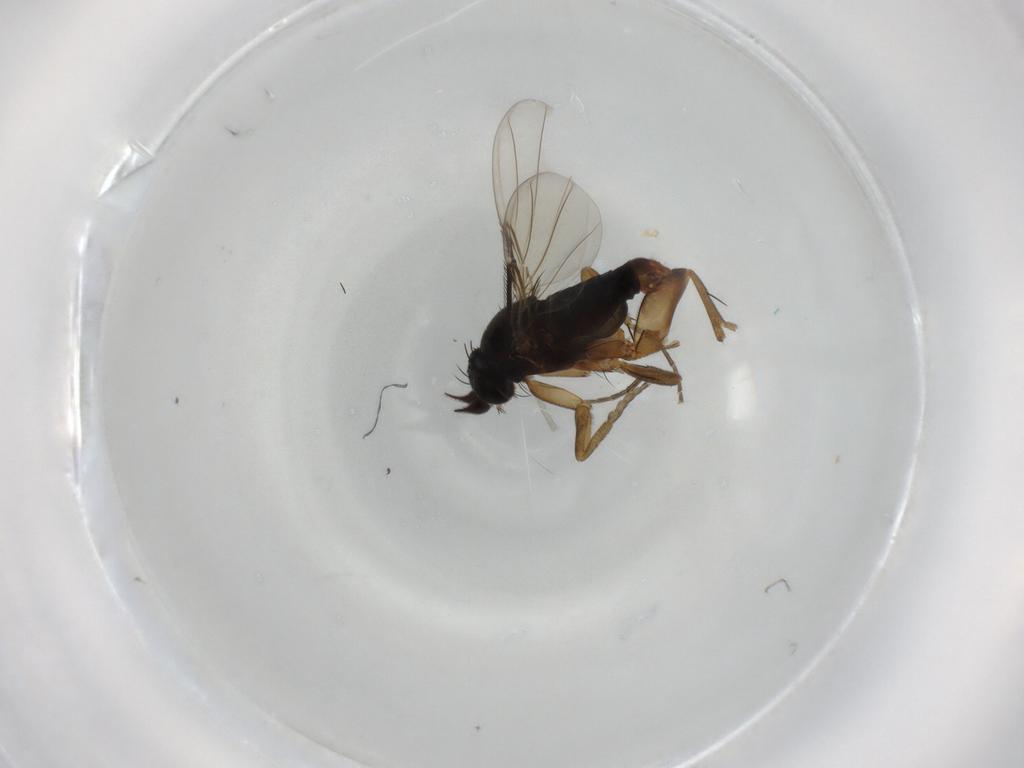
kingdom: Animalia
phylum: Arthropoda
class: Insecta
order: Diptera
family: Phoridae
